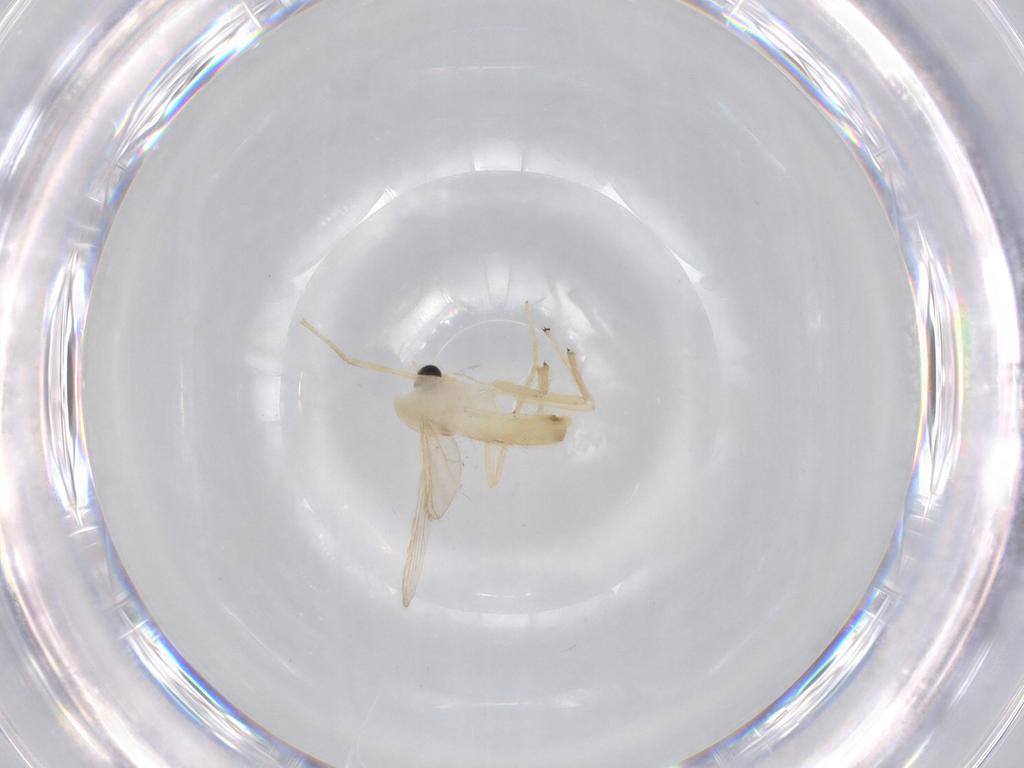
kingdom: Animalia
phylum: Arthropoda
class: Insecta
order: Diptera
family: Chironomidae
